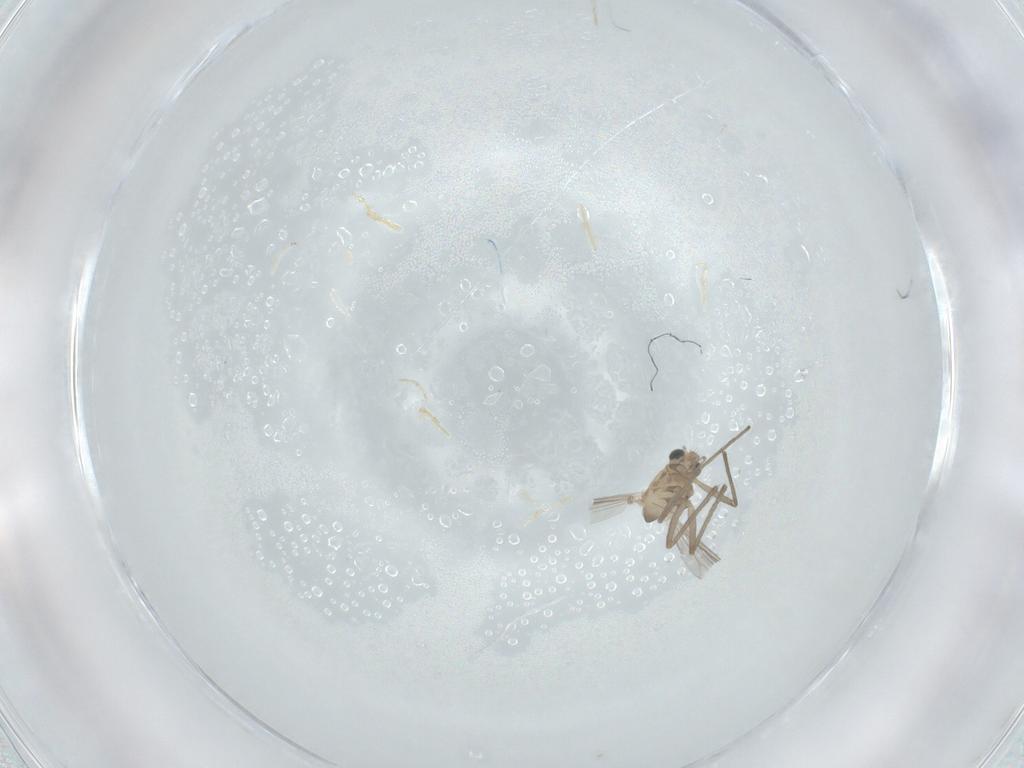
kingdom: Animalia
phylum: Arthropoda
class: Insecta
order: Diptera
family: Chironomidae
